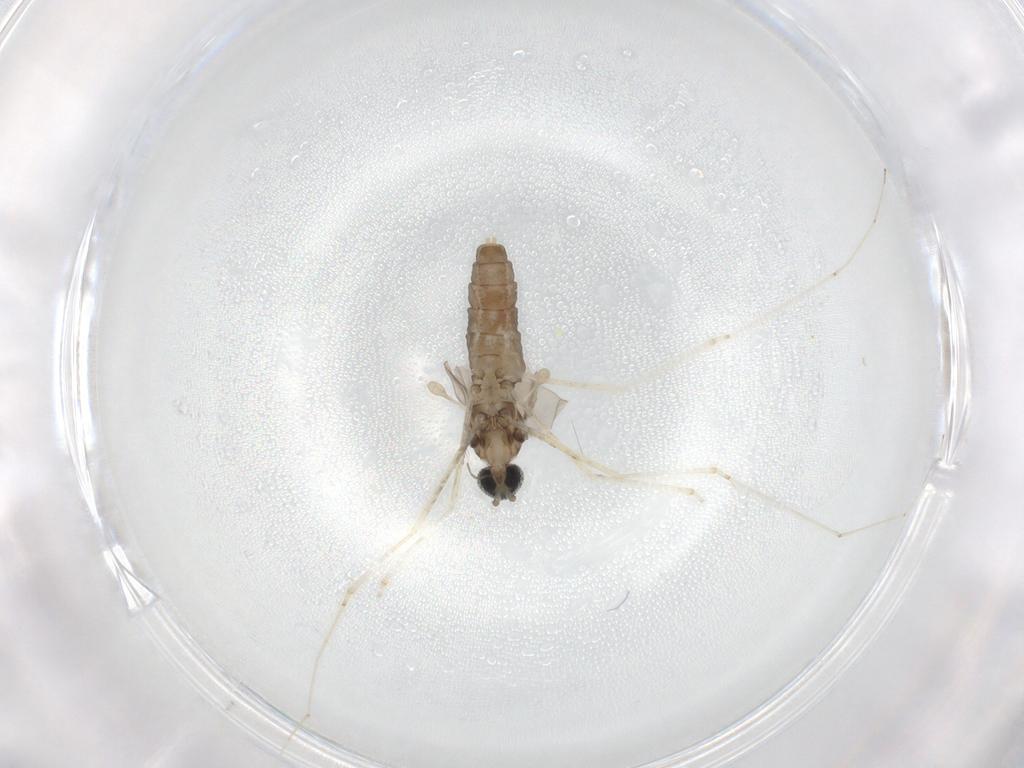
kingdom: Animalia
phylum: Arthropoda
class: Insecta
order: Diptera
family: Cecidomyiidae
